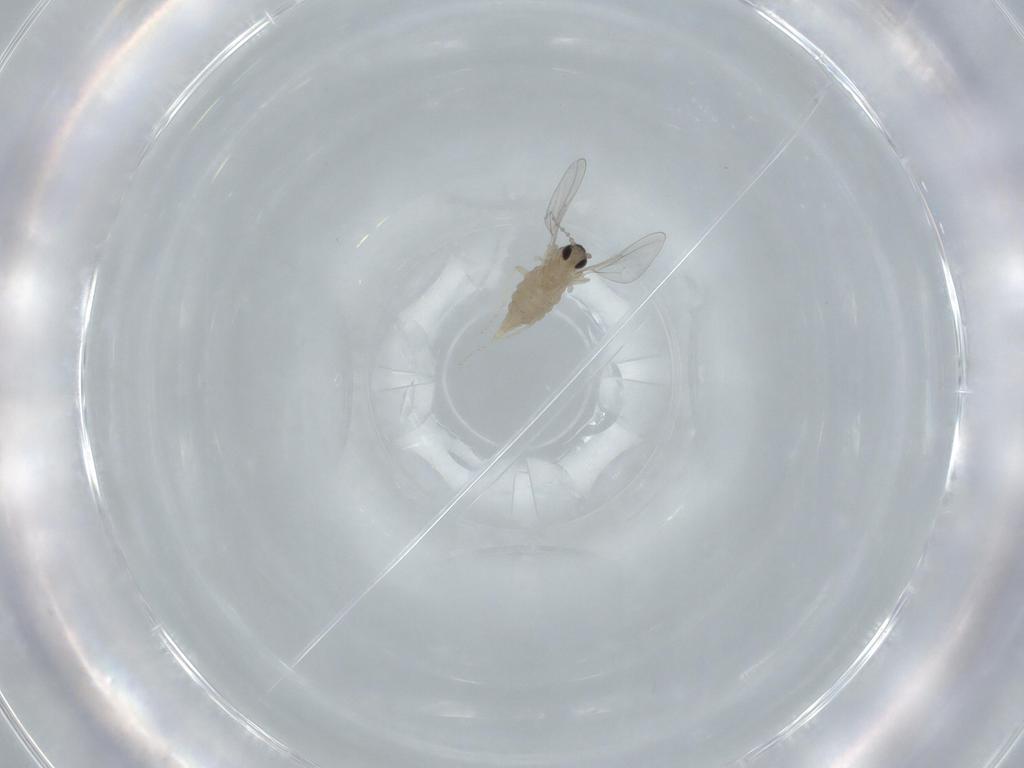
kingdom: Animalia
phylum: Arthropoda
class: Insecta
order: Diptera
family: Cecidomyiidae
